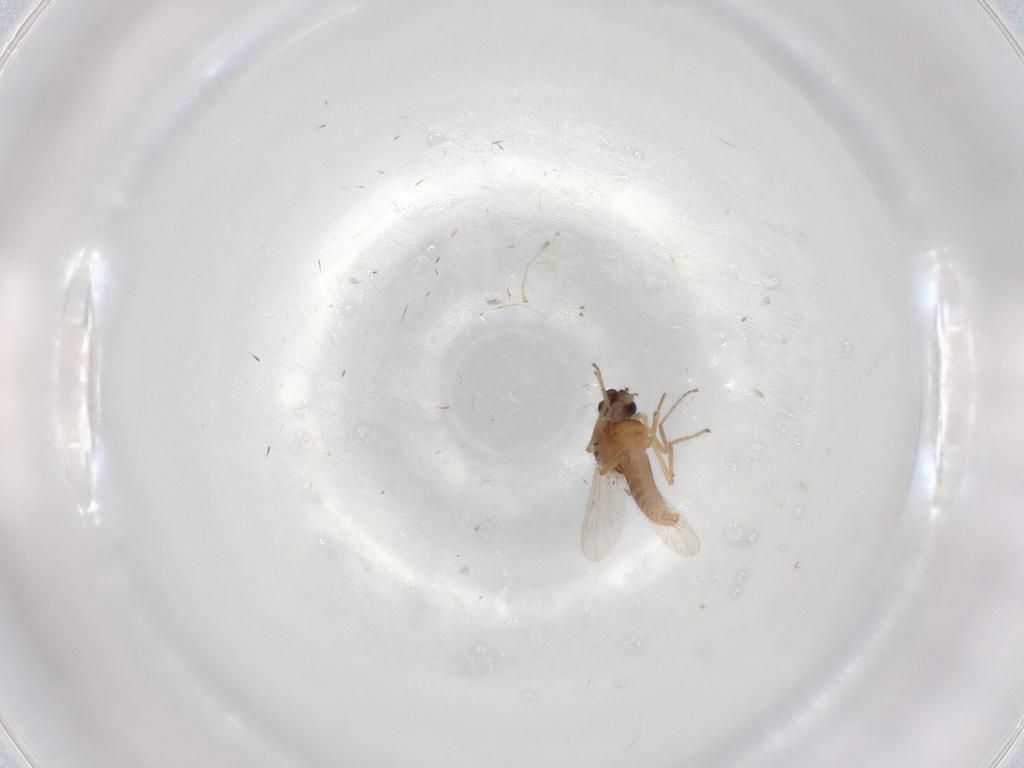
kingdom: Animalia
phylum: Arthropoda
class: Insecta
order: Diptera
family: Ceratopogonidae
